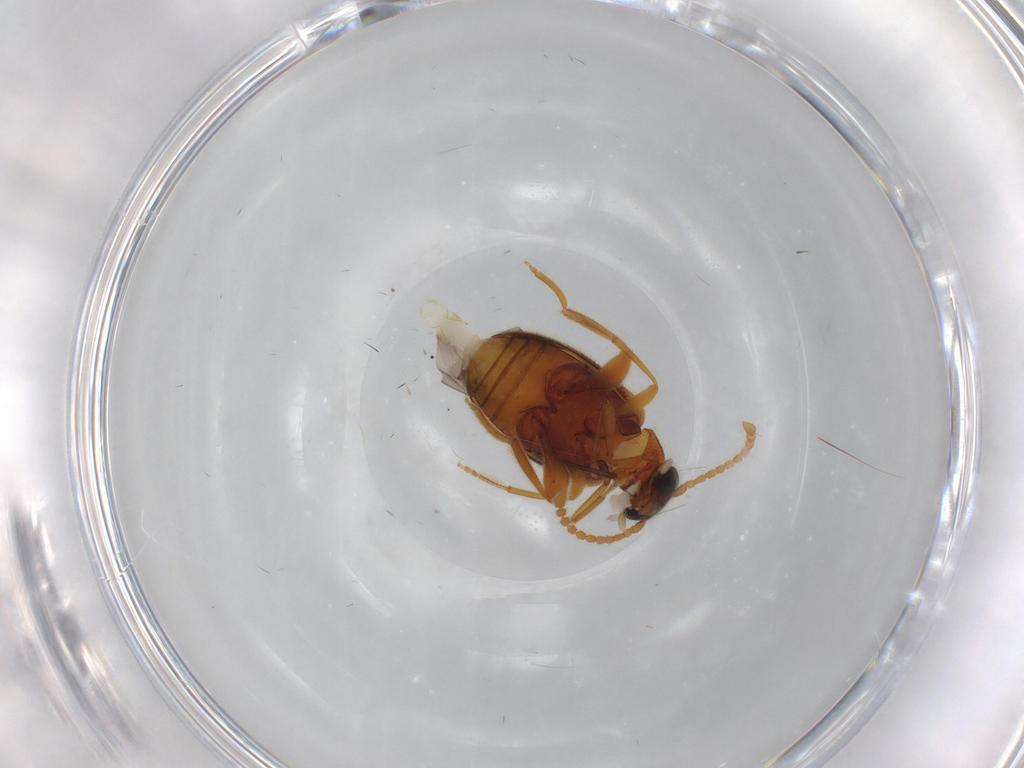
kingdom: Animalia
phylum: Arthropoda
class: Insecta
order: Coleoptera
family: Aderidae
